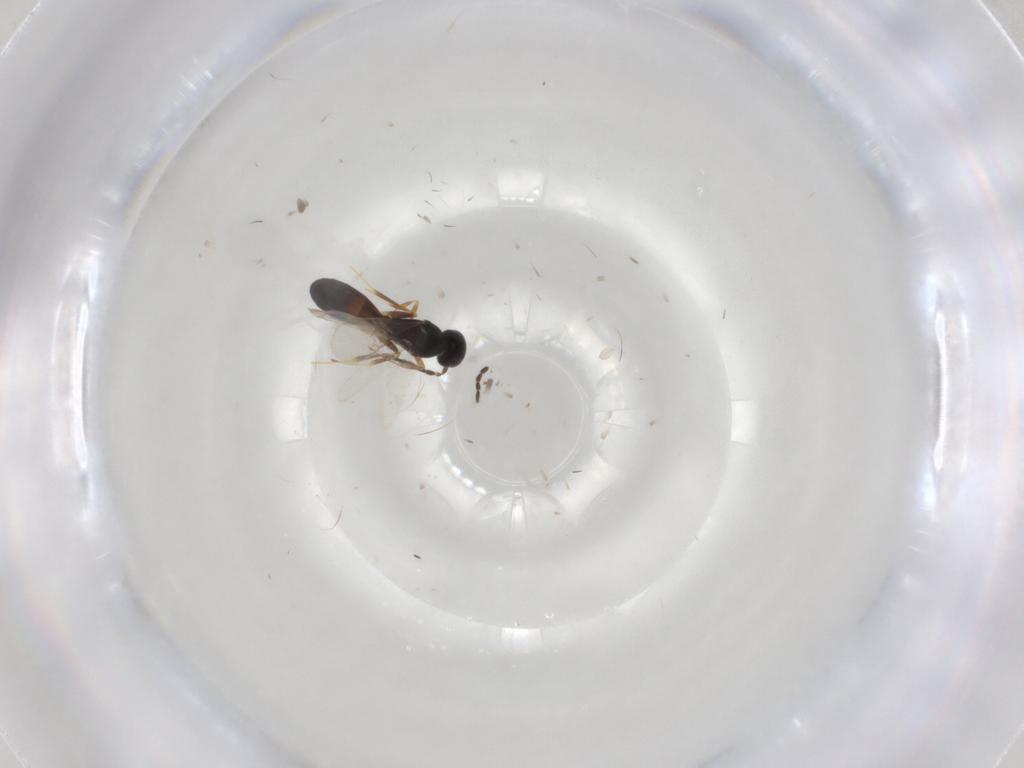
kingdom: Animalia
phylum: Arthropoda
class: Insecta
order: Hymenoptera
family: Scelionidae
